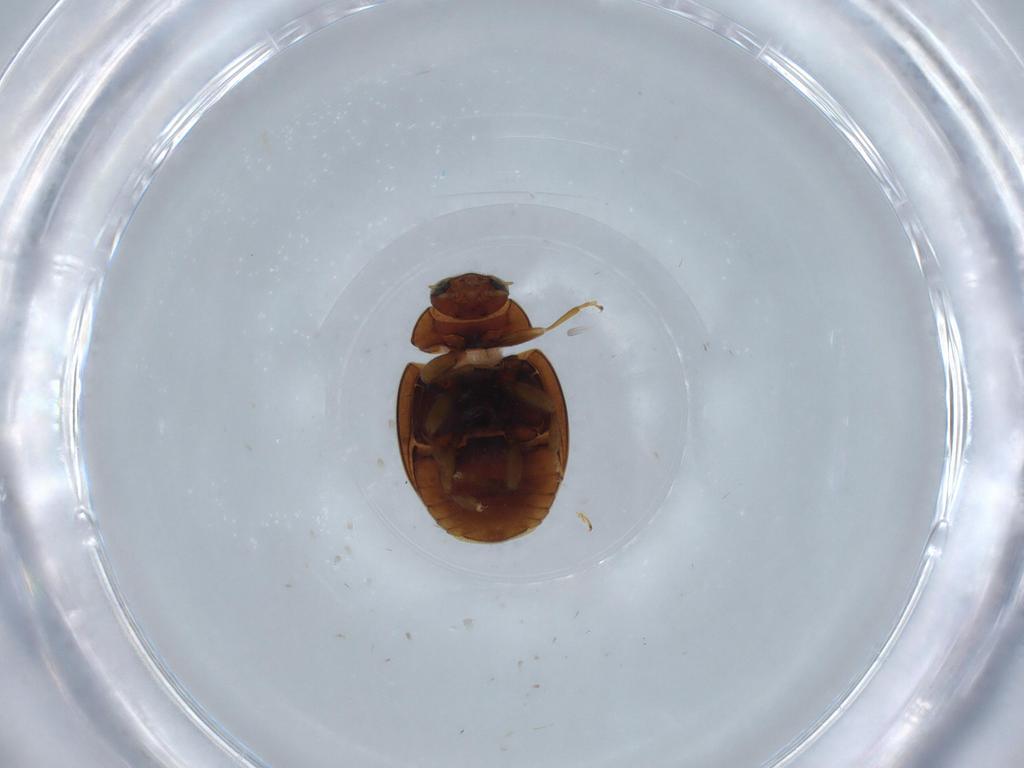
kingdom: Animalia
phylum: Arthropoda
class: Insecta
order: Coleoptera
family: Coccinellidae
